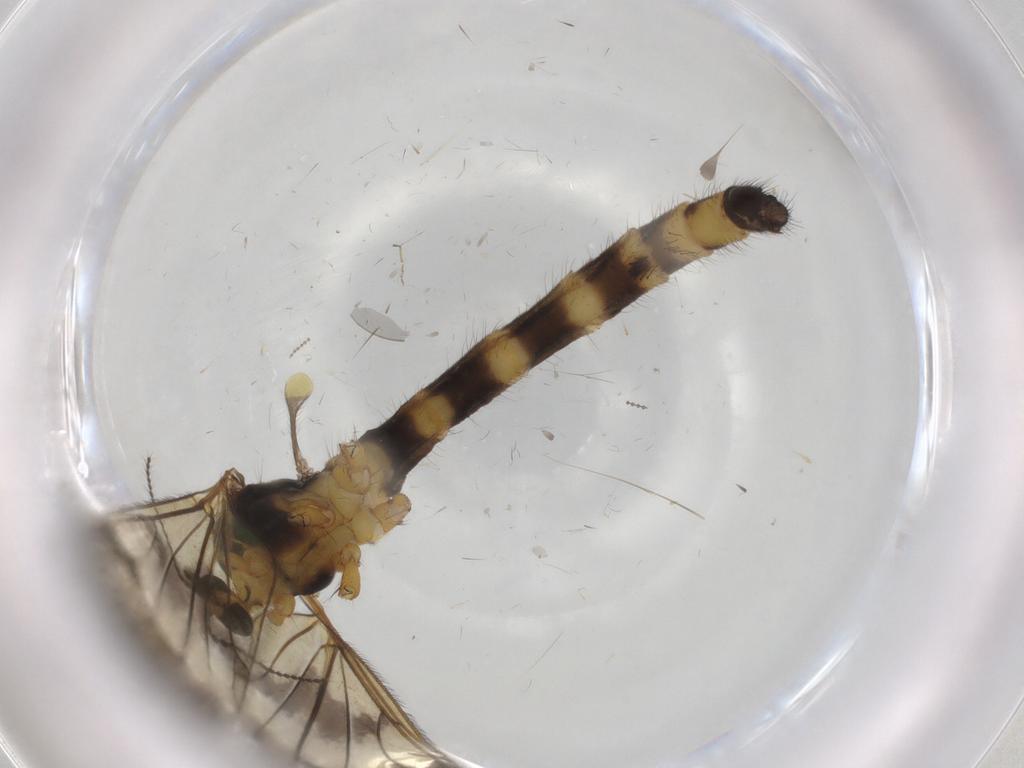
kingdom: Animalia
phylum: Arthropoda
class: Insecta
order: Diptera
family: Limoniidae
